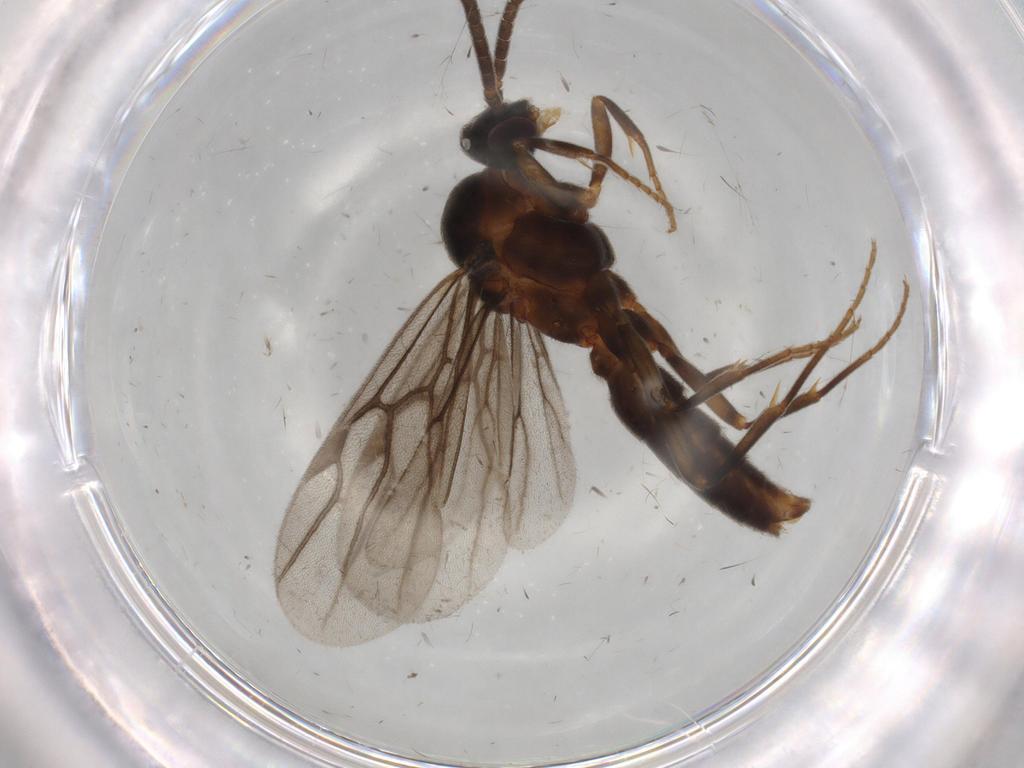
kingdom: Animalia
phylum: Arthropoda
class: Insecta
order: Hymenoptera
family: Formicidae
